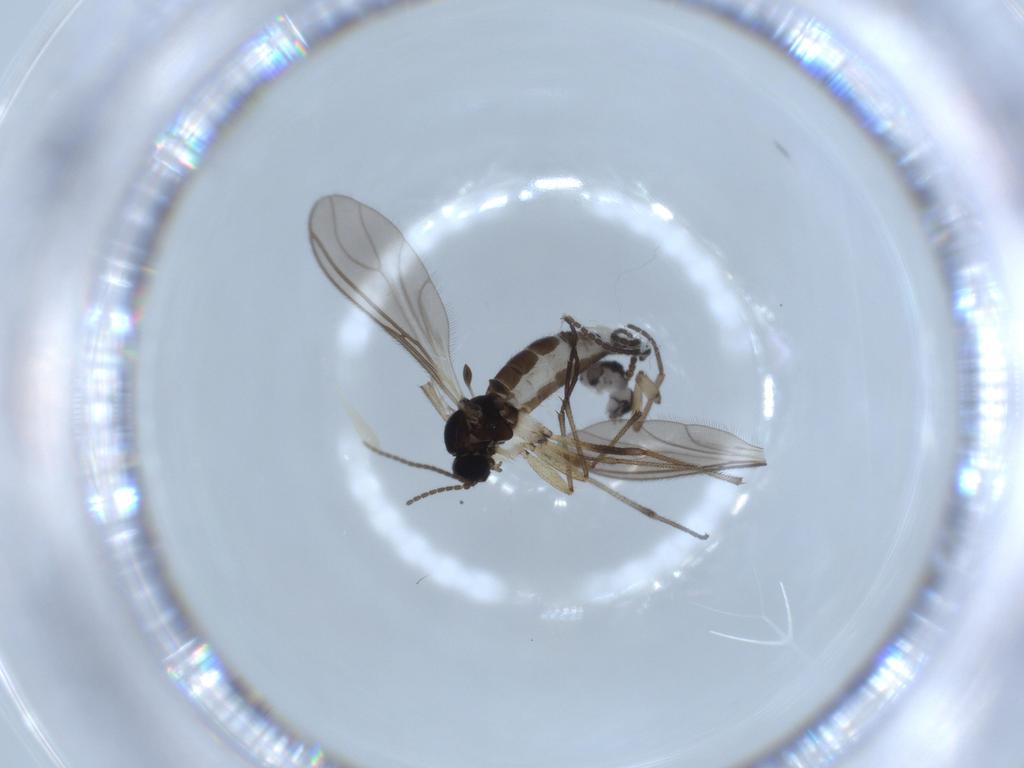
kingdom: Animalia
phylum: Arthropoda
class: Insecta
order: Diptera
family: Sciaridae
